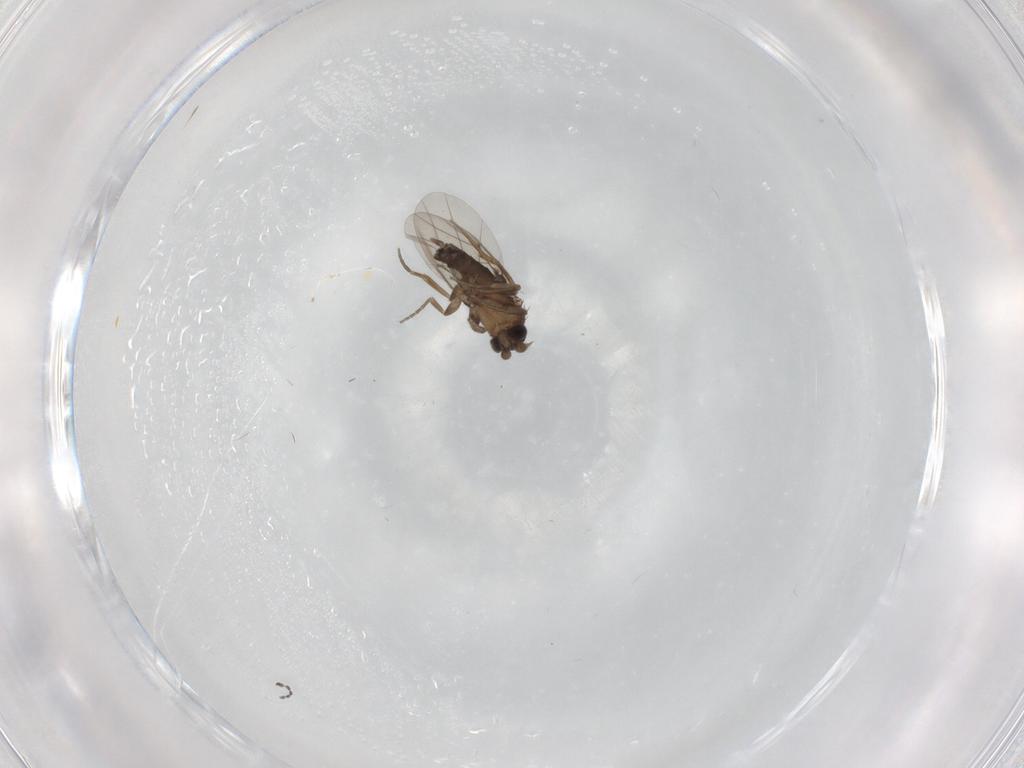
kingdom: Animalia
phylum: Arthropoda
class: Insecta
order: Diptera
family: Phoridae
